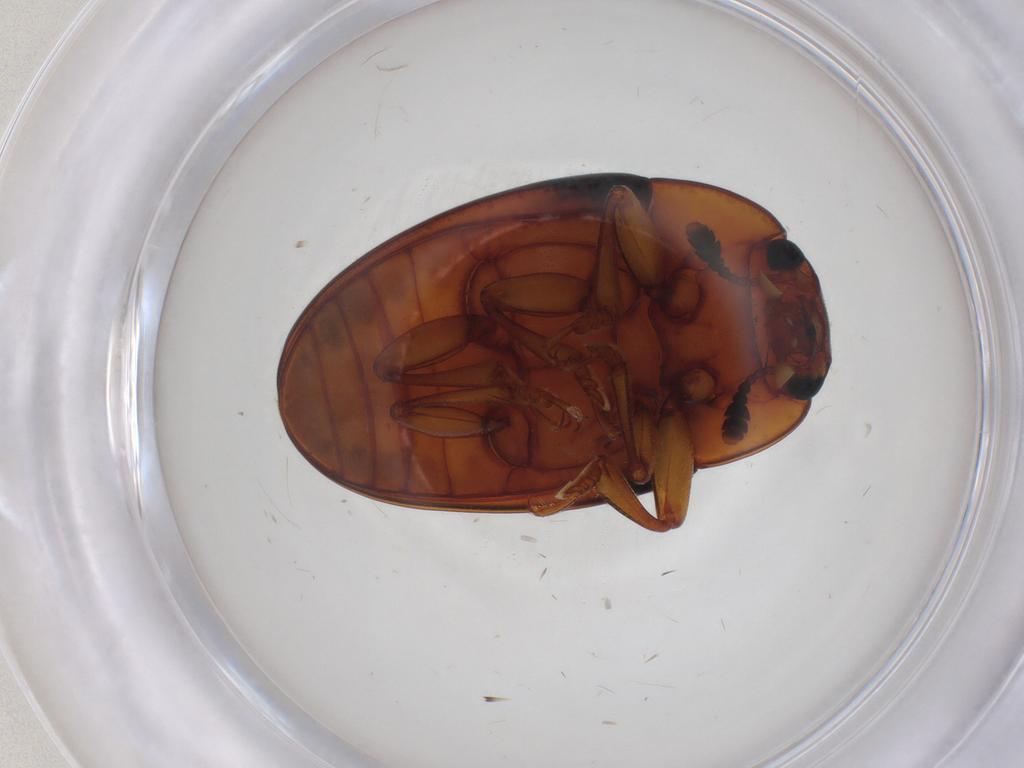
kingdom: Animalia
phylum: Arthropoda
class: Insecta
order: Coleoptera
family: Erotylidae
